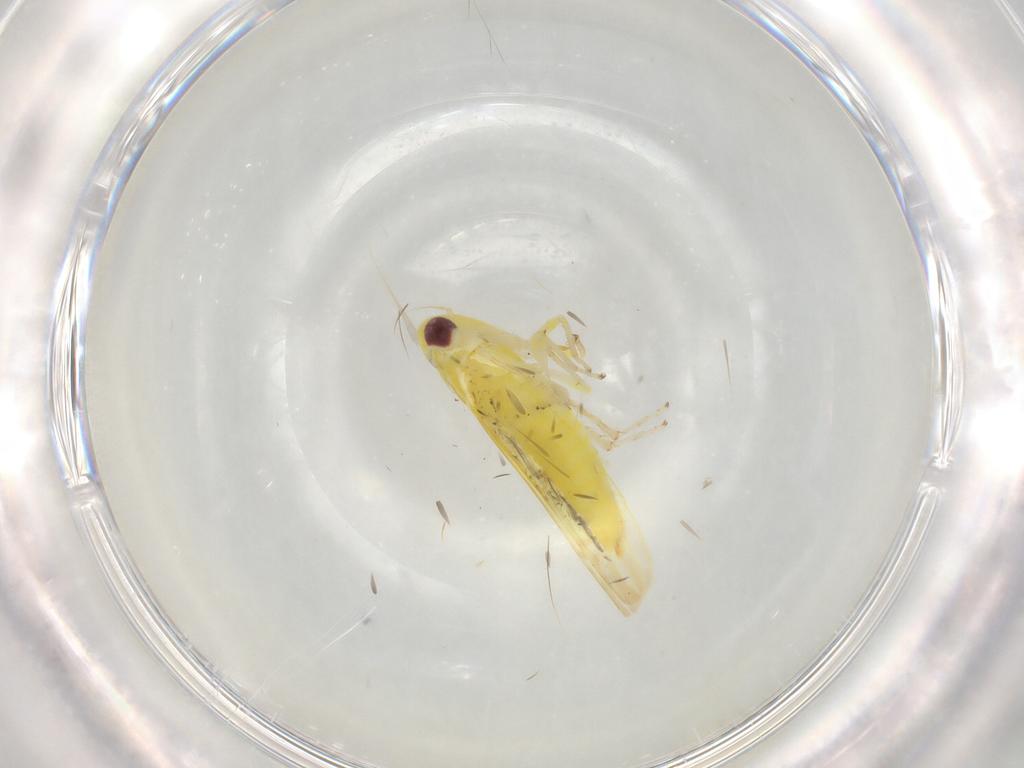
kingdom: Animalia
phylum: Arthropoda
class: Insecta
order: Hemiptera
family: Cicadellidae
